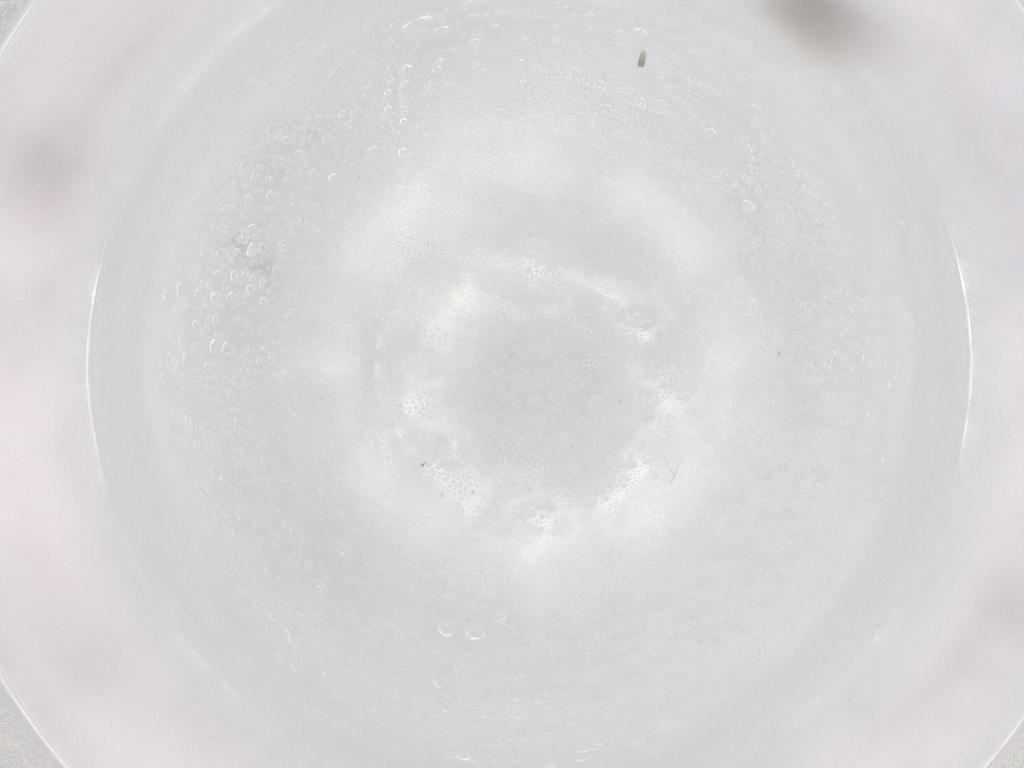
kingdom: Animalia
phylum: Arthropoda
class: Insecta
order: Diptera
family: Phoridae
